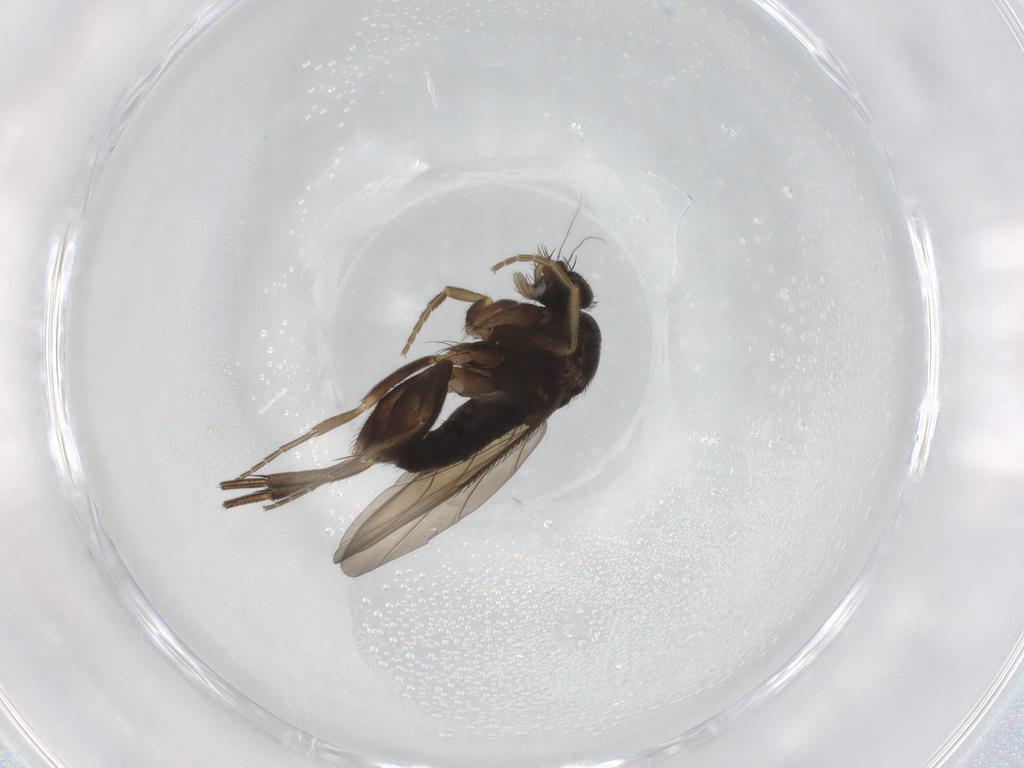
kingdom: Animalia
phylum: Arthropoda
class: Insecta
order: Diptera
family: Phoridae
